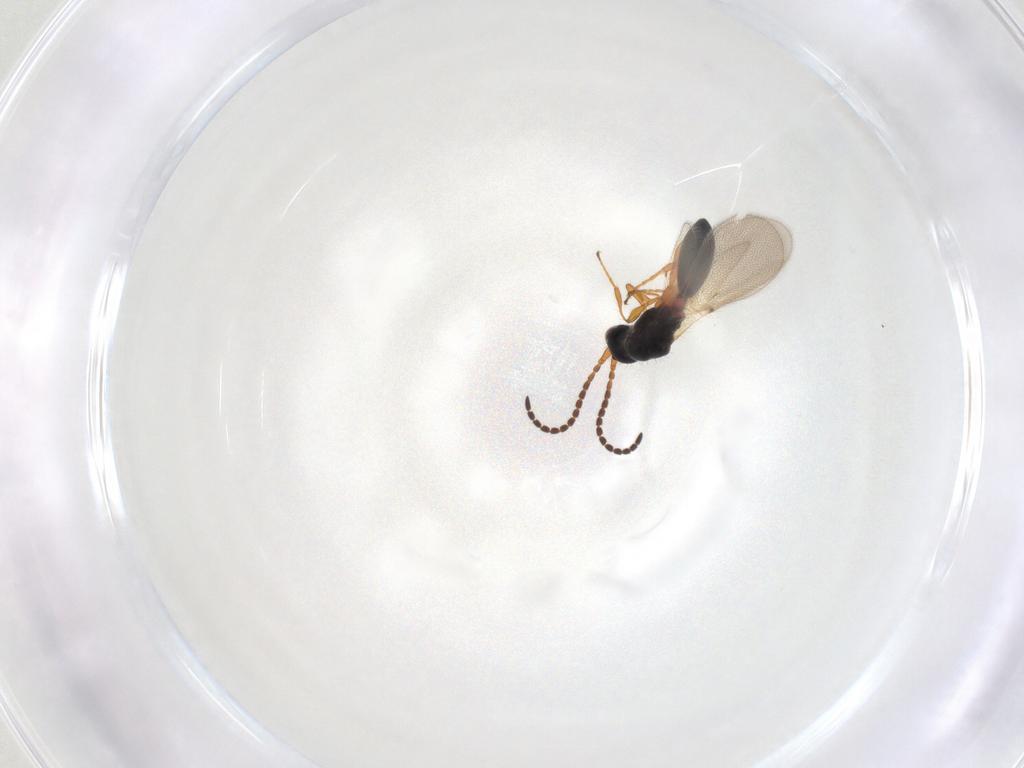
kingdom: Animalia
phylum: Arthropoda
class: Insecta
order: Hymenoptera
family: Diapriidae
